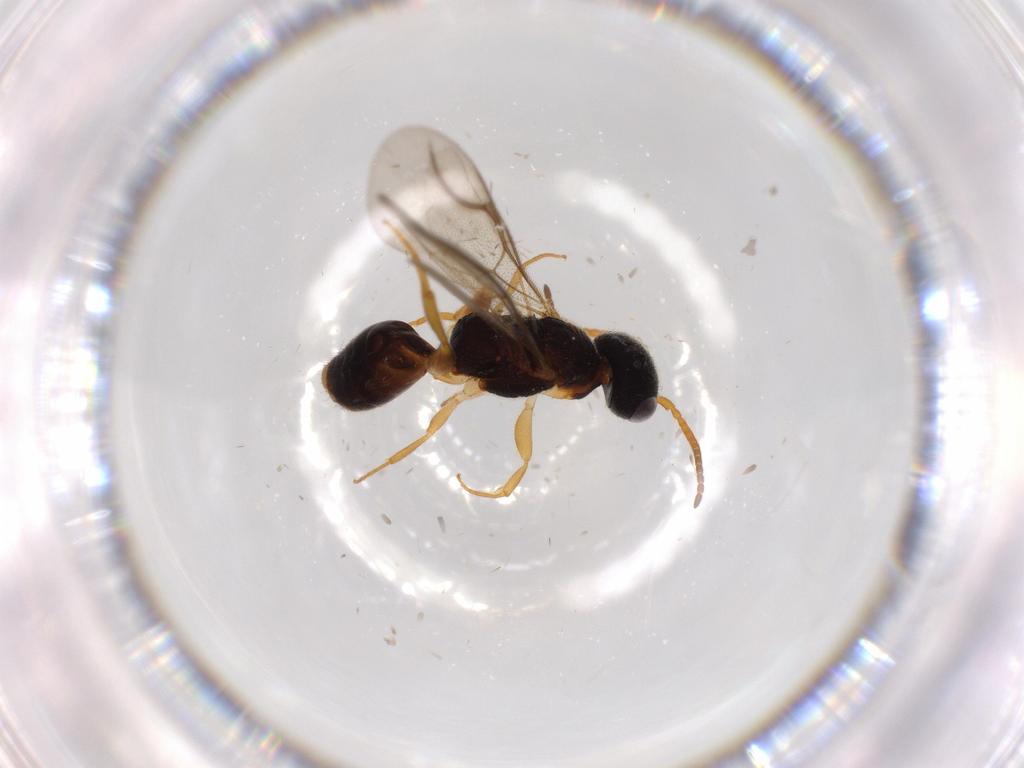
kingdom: Animalia
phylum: Arthropoda
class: Insecta
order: Hymenoptera
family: Bethylidae
